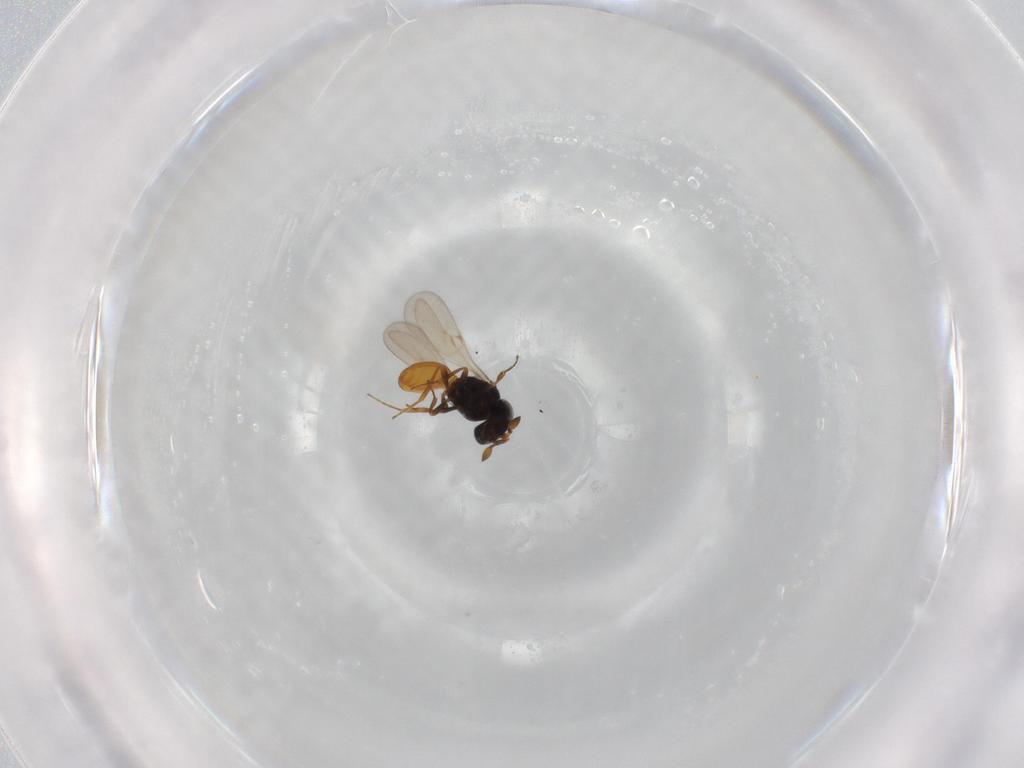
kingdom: Animalia
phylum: Arthropoda
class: Insecta
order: Hymenoptera
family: Scelionidae
